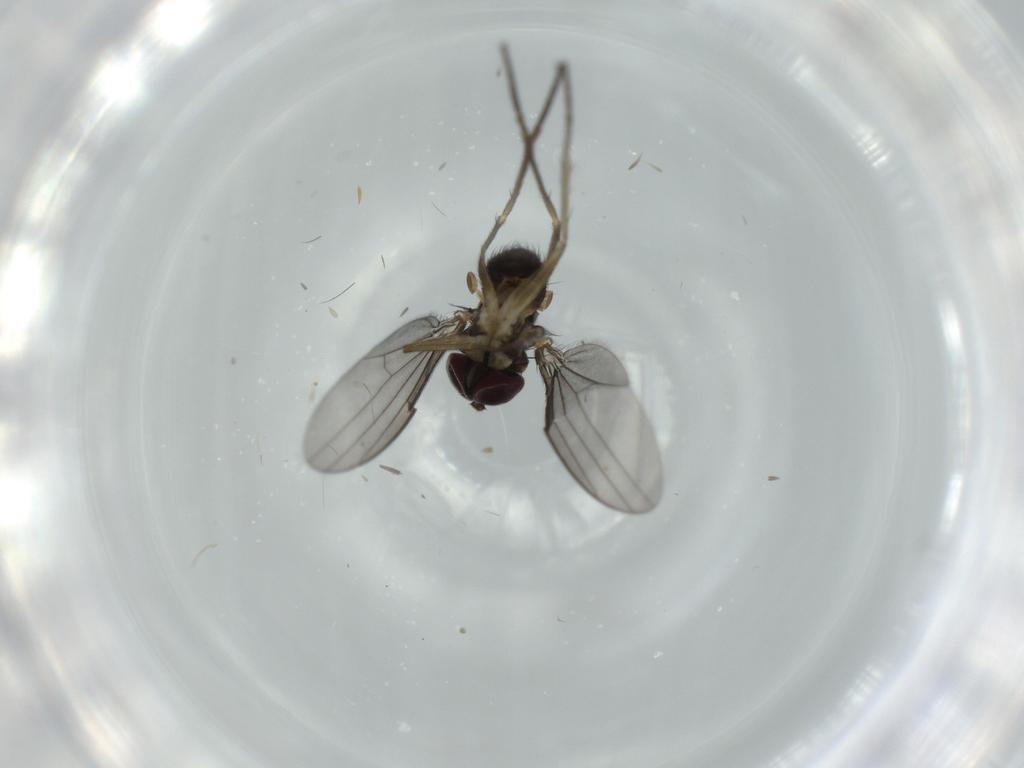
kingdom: Animalia
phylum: Arthropoda
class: Insecta
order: Diptera
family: Dolichopodidae
